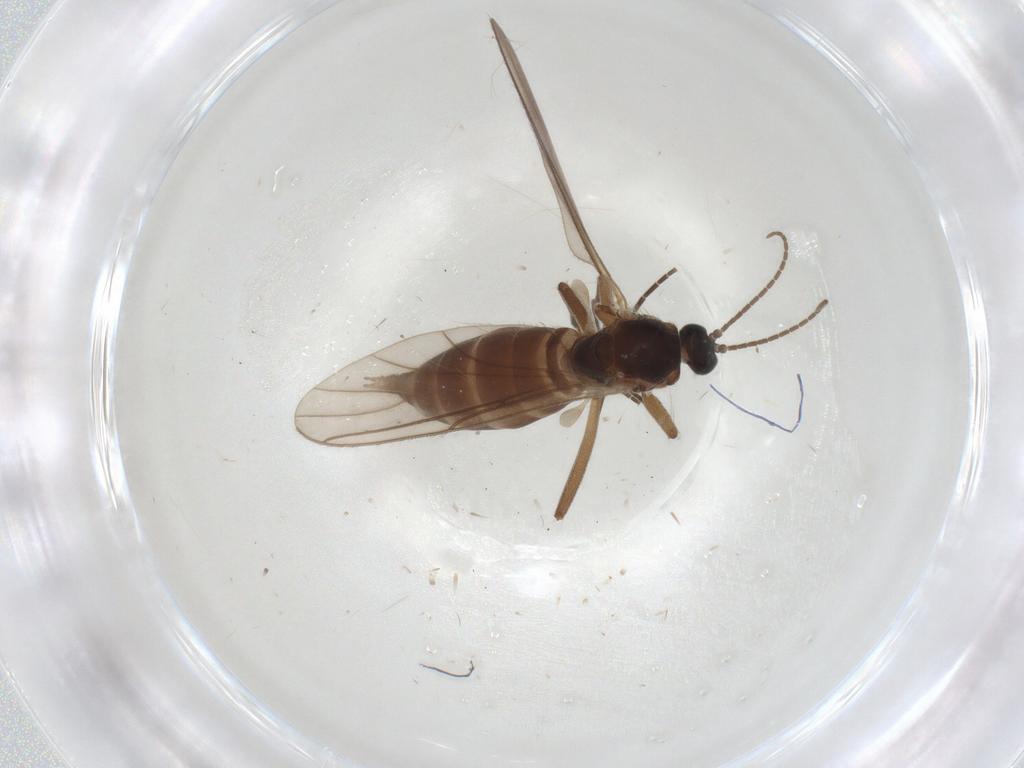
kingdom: Animalia
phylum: Arthropoda
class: Insecta
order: Diptera
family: Sciaridae
